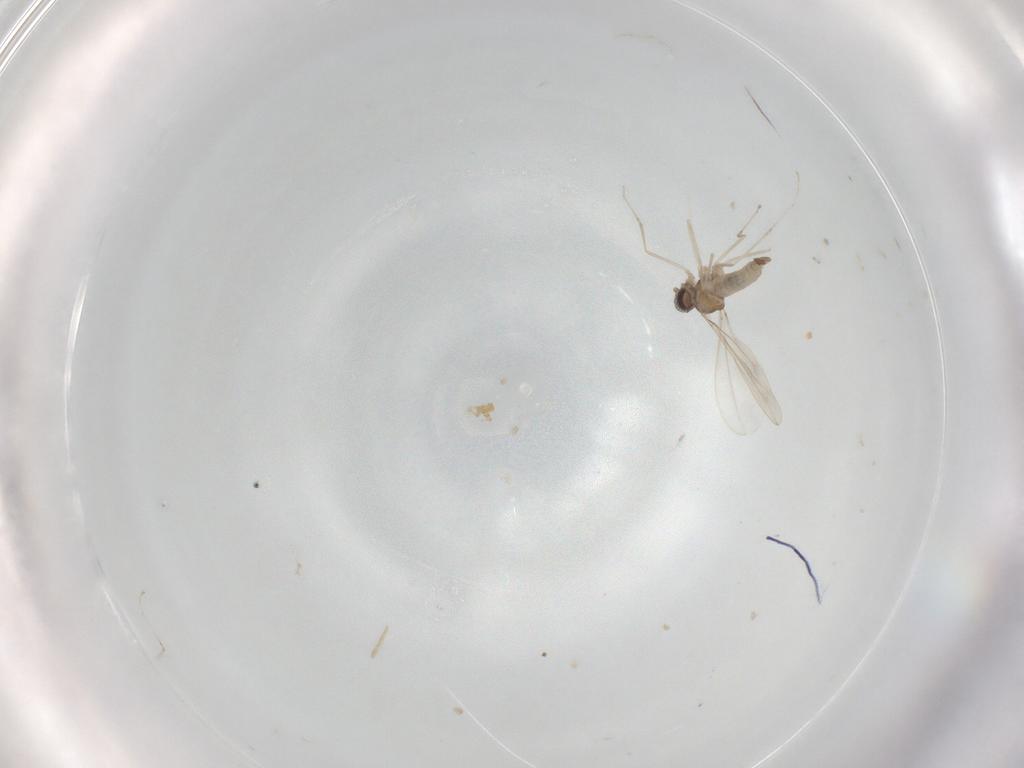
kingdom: Animalia
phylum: Arthropoda
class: Insecta
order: Diptera
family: Cecidomyiidae
